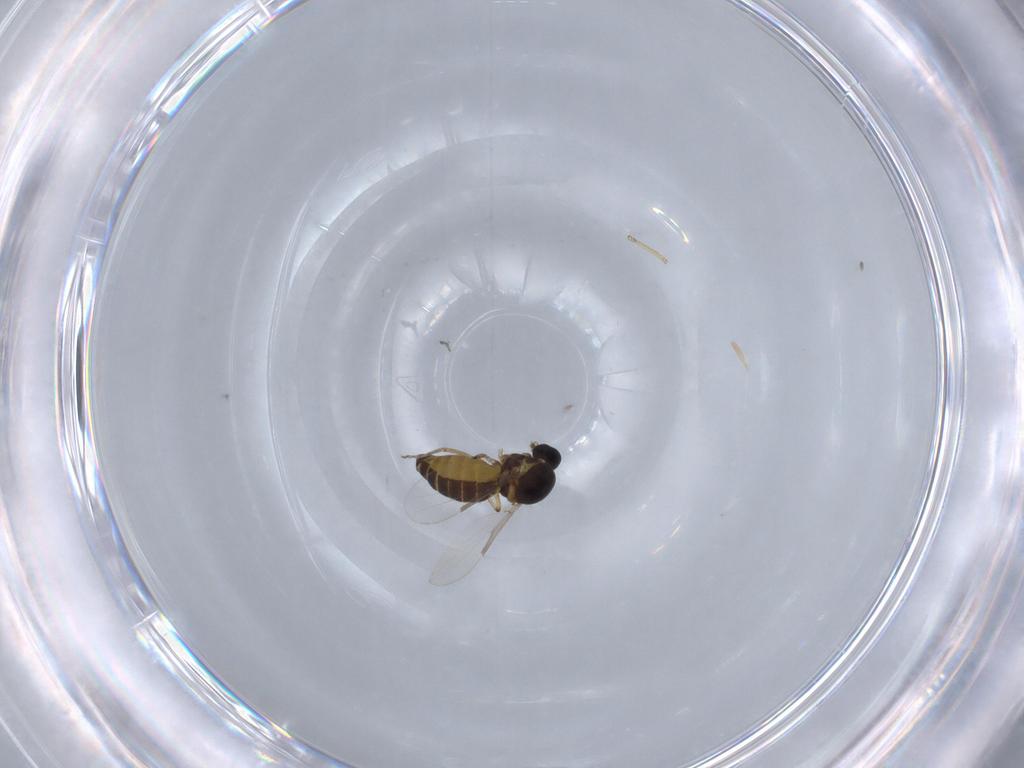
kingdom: Animalia
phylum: Arthropoda
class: Insecta
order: Diptera
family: Ceratopogonidae
